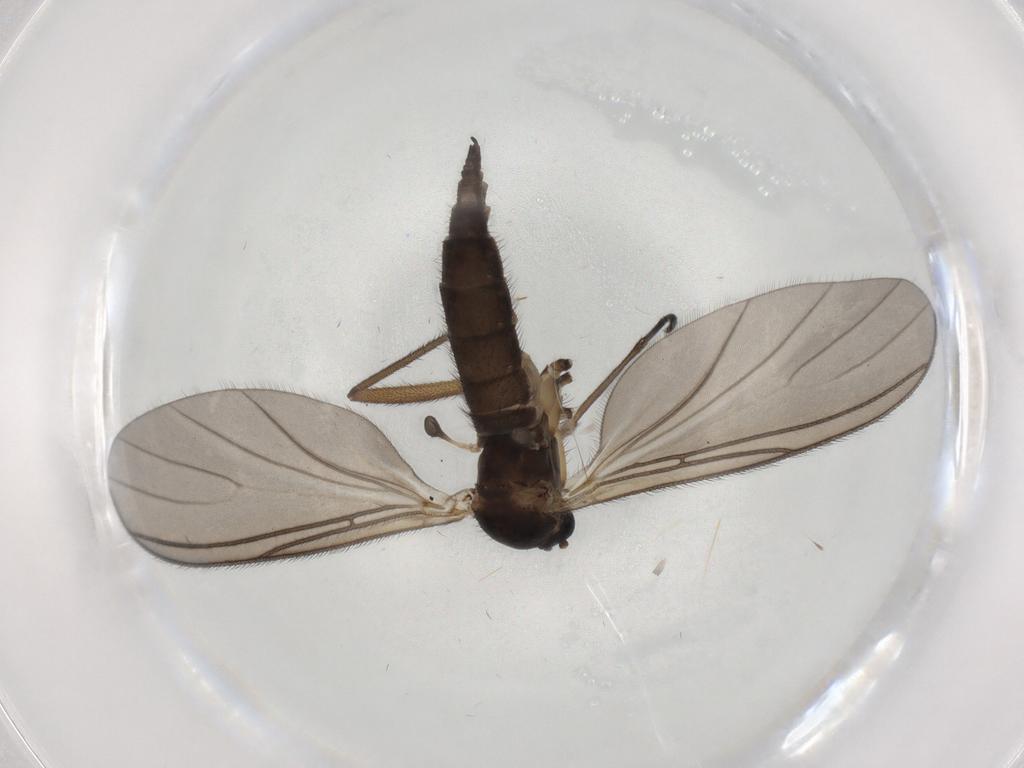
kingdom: Animalia
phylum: Arthropoda
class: Insecta
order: Diptera
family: Sciaridae
